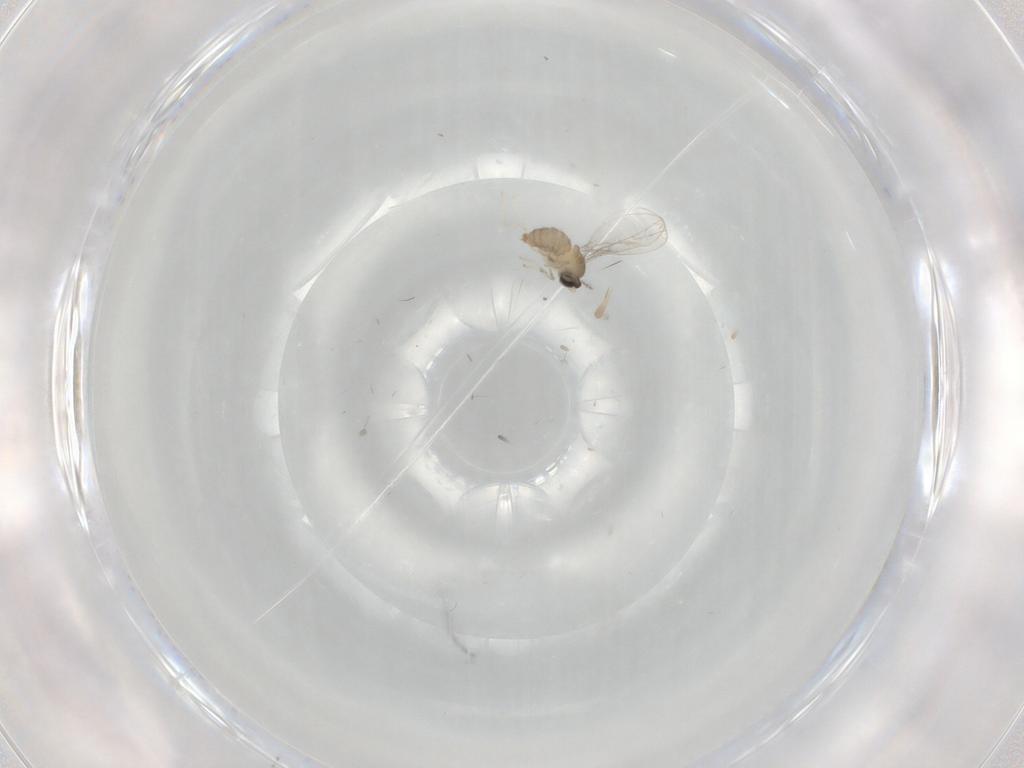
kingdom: Animalia
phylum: Arthropoda
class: Insecta
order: Diptera
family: Cecidomyiidae
